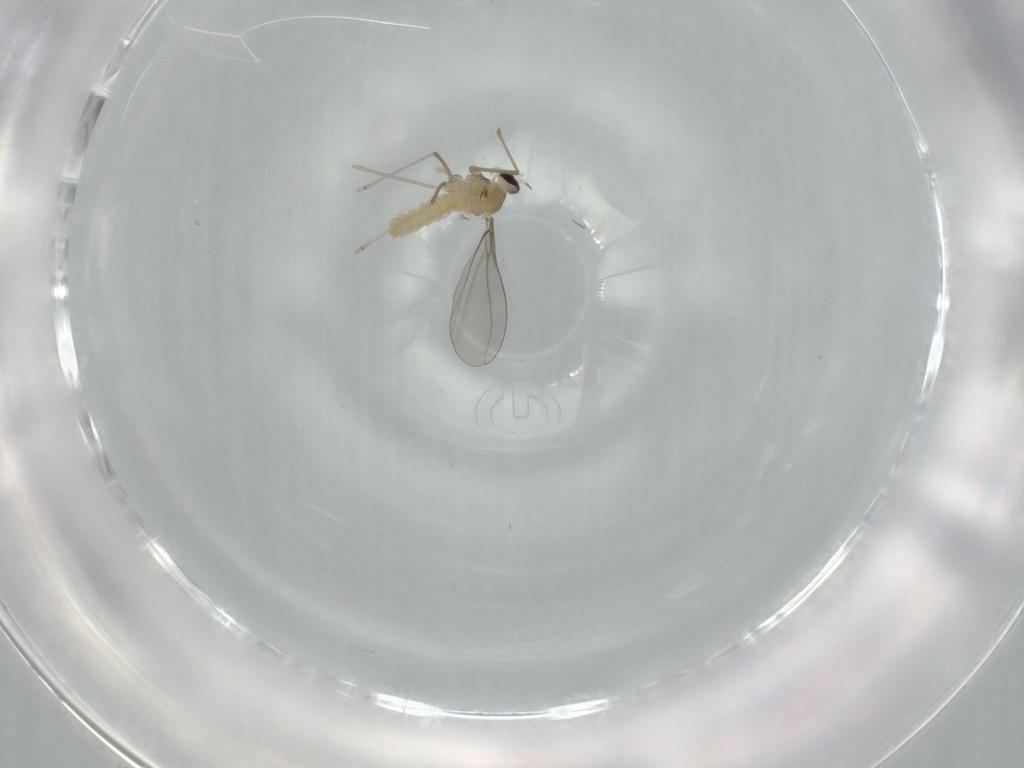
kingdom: Animalia
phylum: Arthropoda
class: Insecta
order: Diptera
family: Cecidomyiidae
